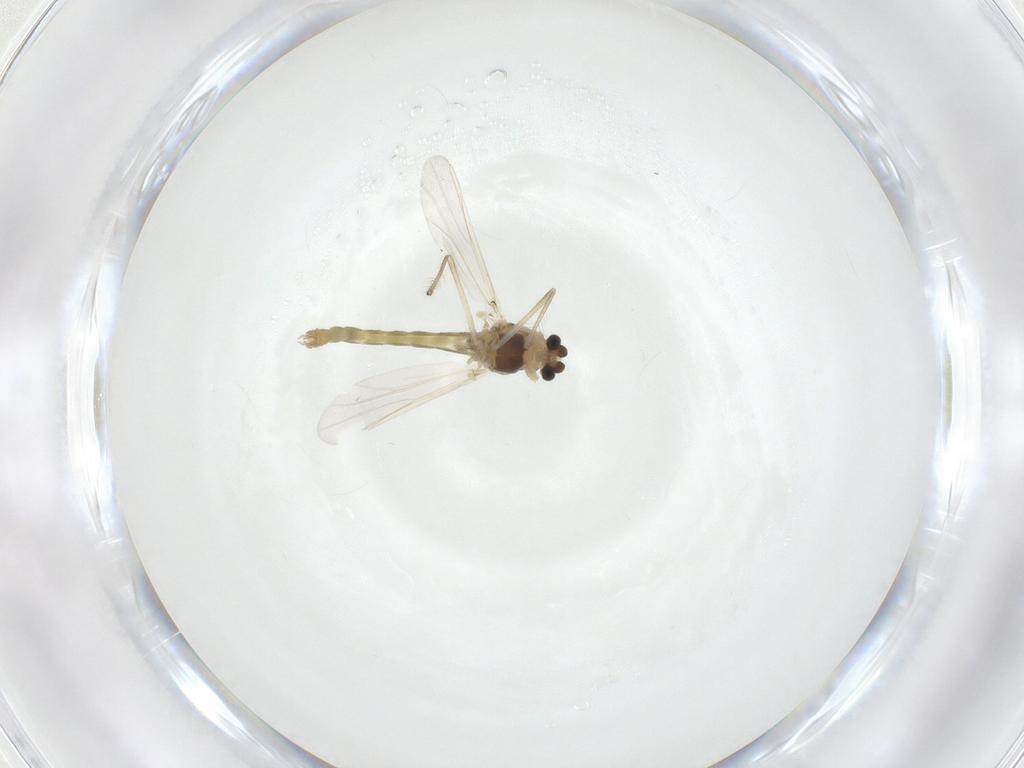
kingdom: Animalia
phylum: Arthropoda
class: Insecta
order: Diptera
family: Chironomidae
